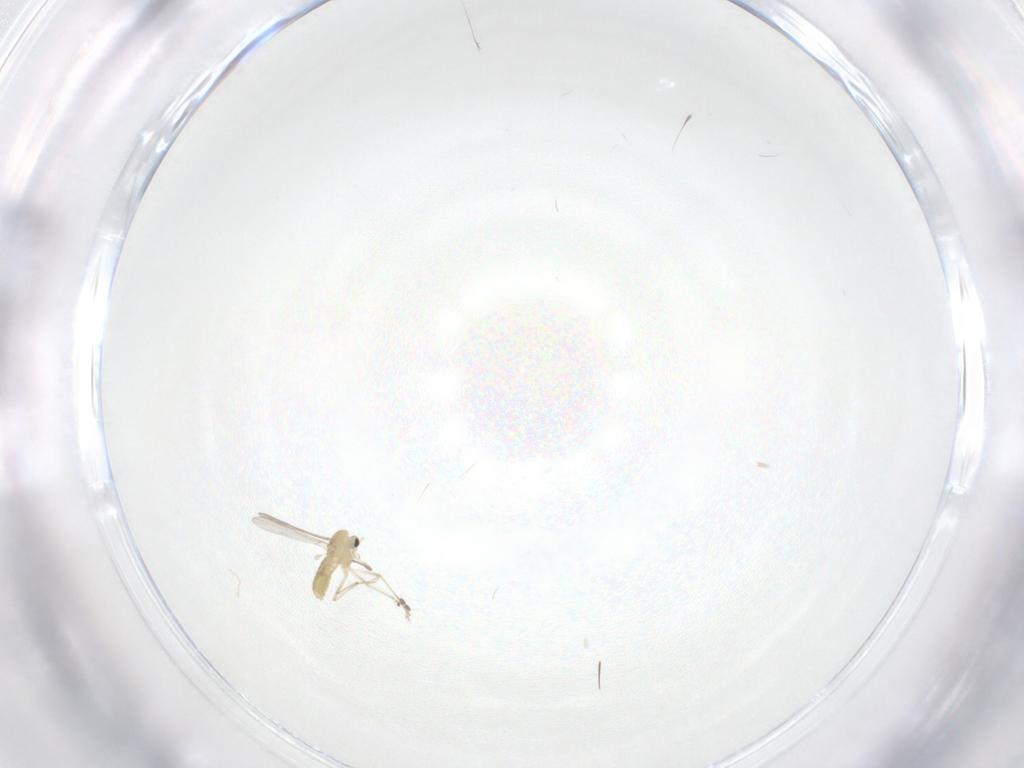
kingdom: Animalia
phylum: Arthropoda
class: Insecta
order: Diptera
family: Chironomidae
